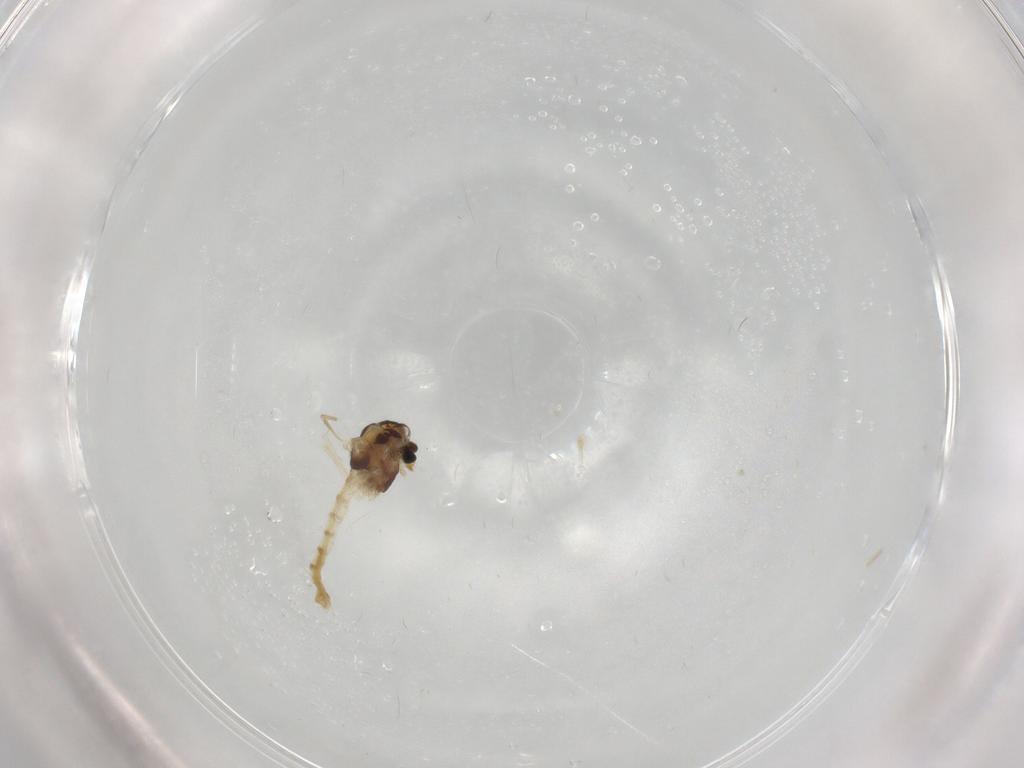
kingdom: Animalia
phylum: Arthropoda
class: Insecta
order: Diptera
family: Chironomidae
